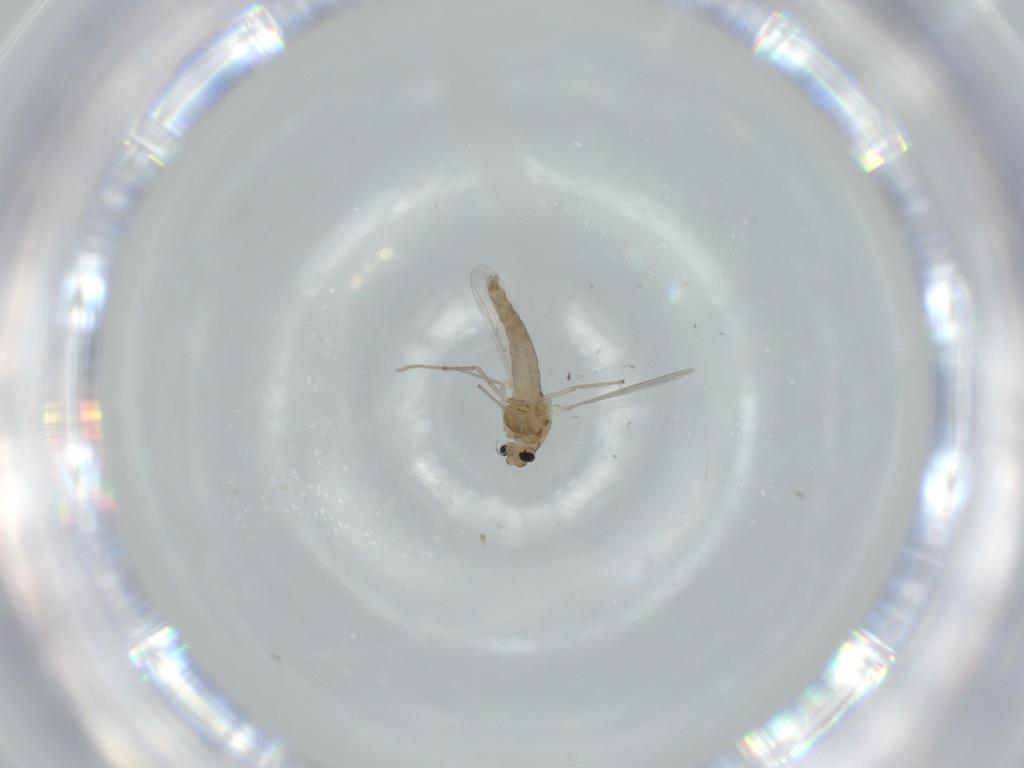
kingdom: Animalia
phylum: Arthropoda
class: Insecta
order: Diptera
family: Chironomidae
